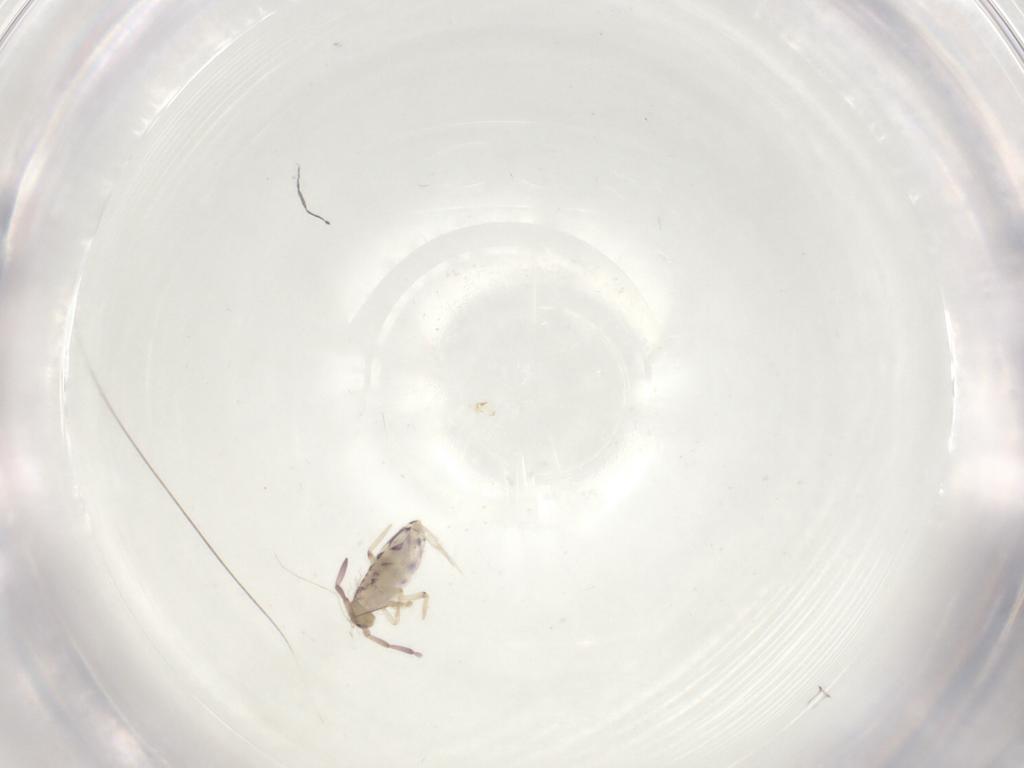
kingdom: Animalia
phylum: Arthropoda
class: Collembola
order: Entomobryomorpha
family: Entomobryidae
